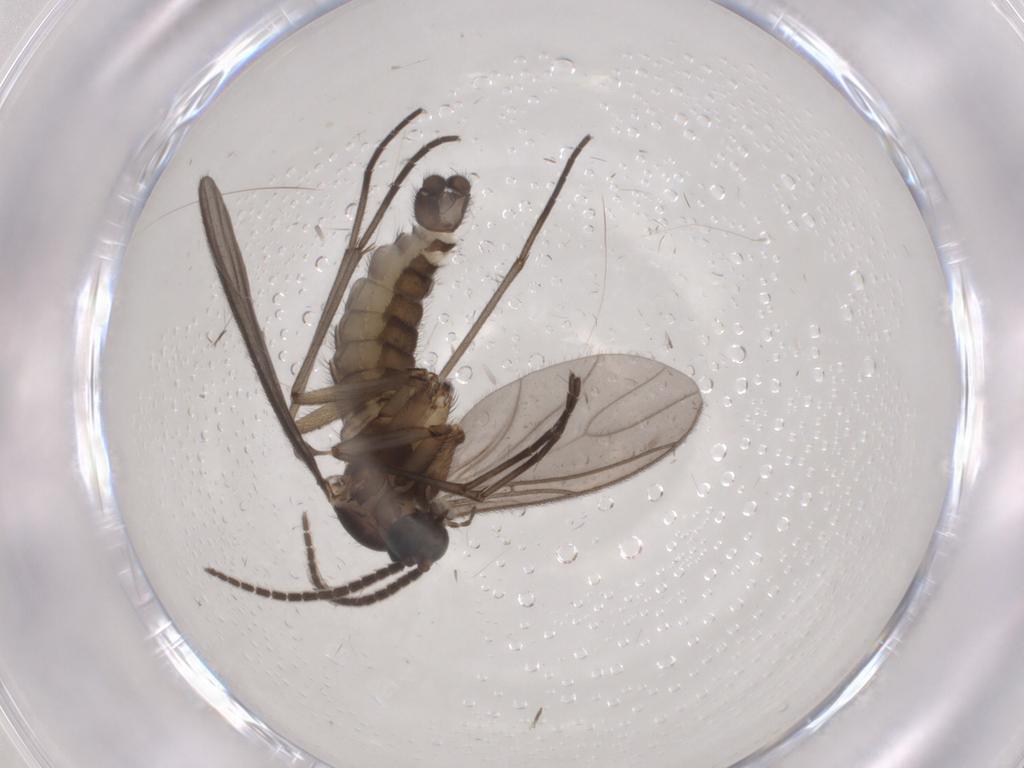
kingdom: Animalia
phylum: Arthropoda
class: Insecta
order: Diptera
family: Sciaridae
